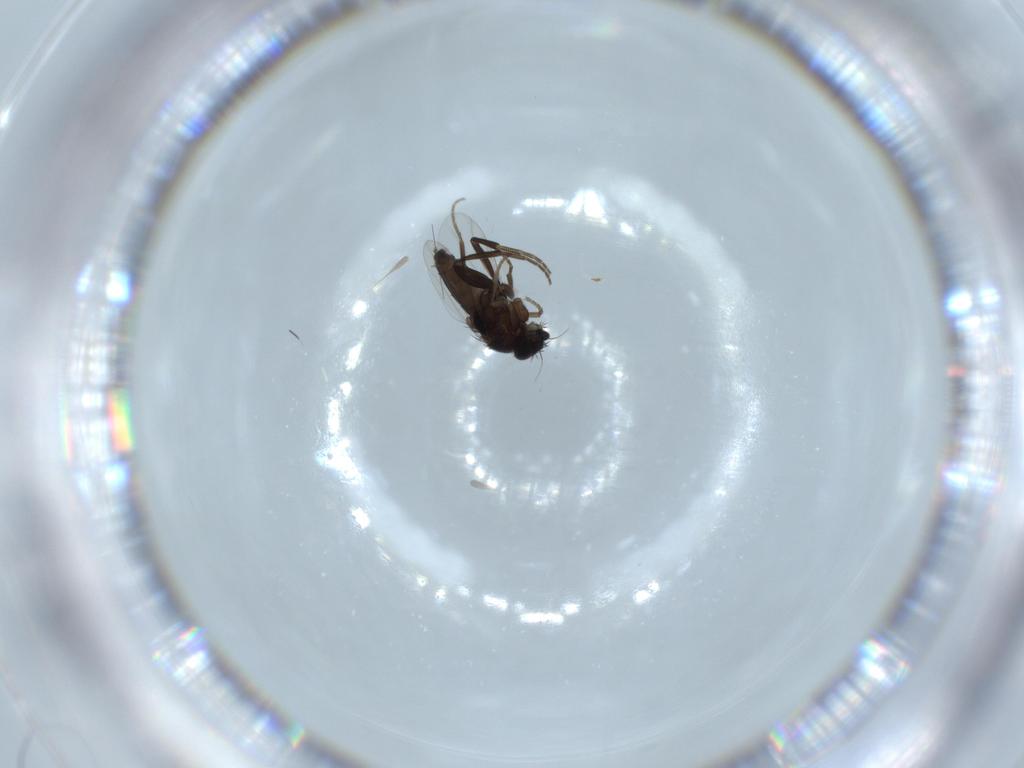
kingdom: Animalia
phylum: Arthropoda
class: Insecta
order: Diptera
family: Phoridae
